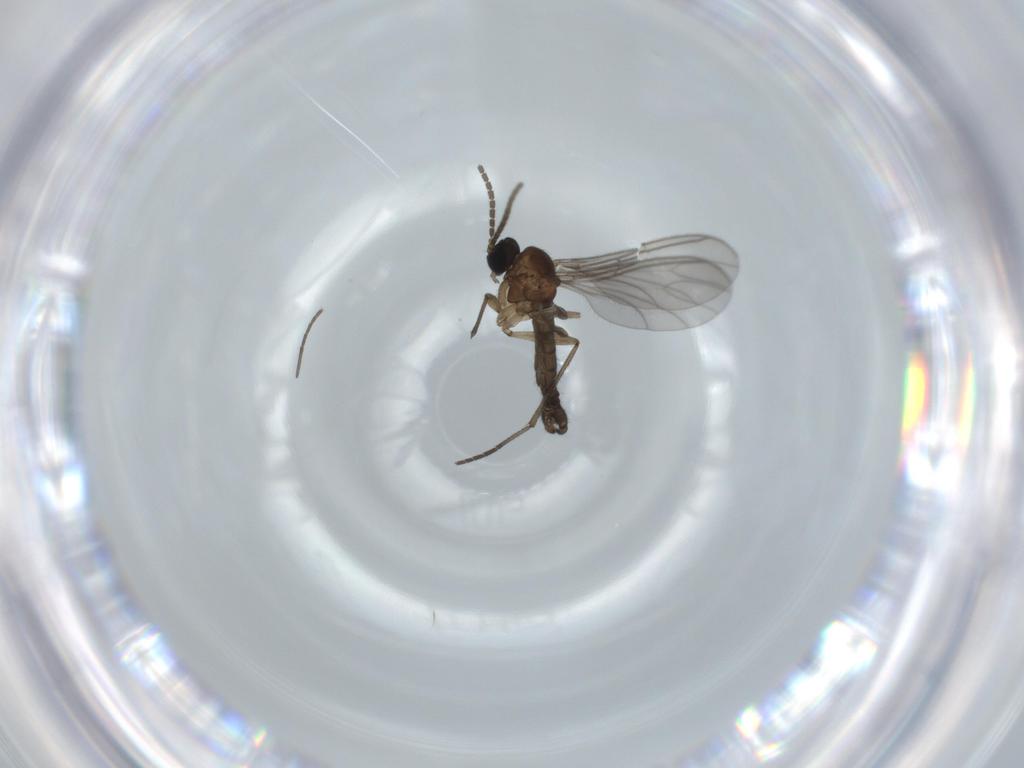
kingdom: Animalia
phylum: Arthropoda
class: Insecta
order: Diptera
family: Sciaridae
